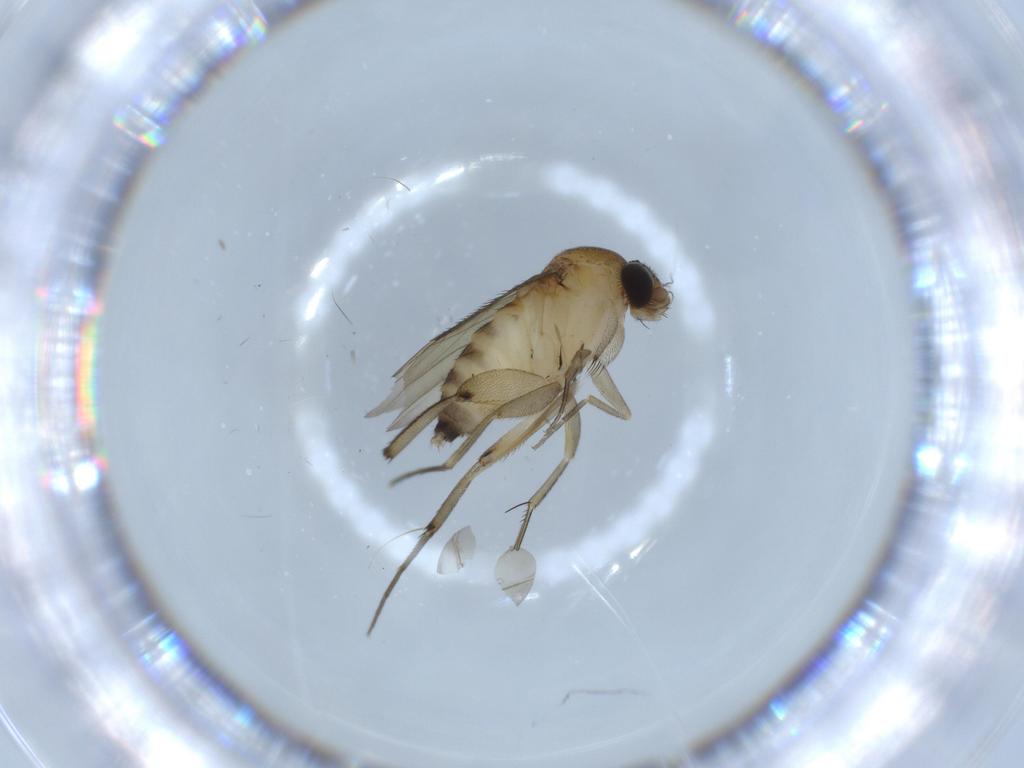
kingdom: Animalia
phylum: Arthropoda
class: Insecta
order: Diptera
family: Phoridae
